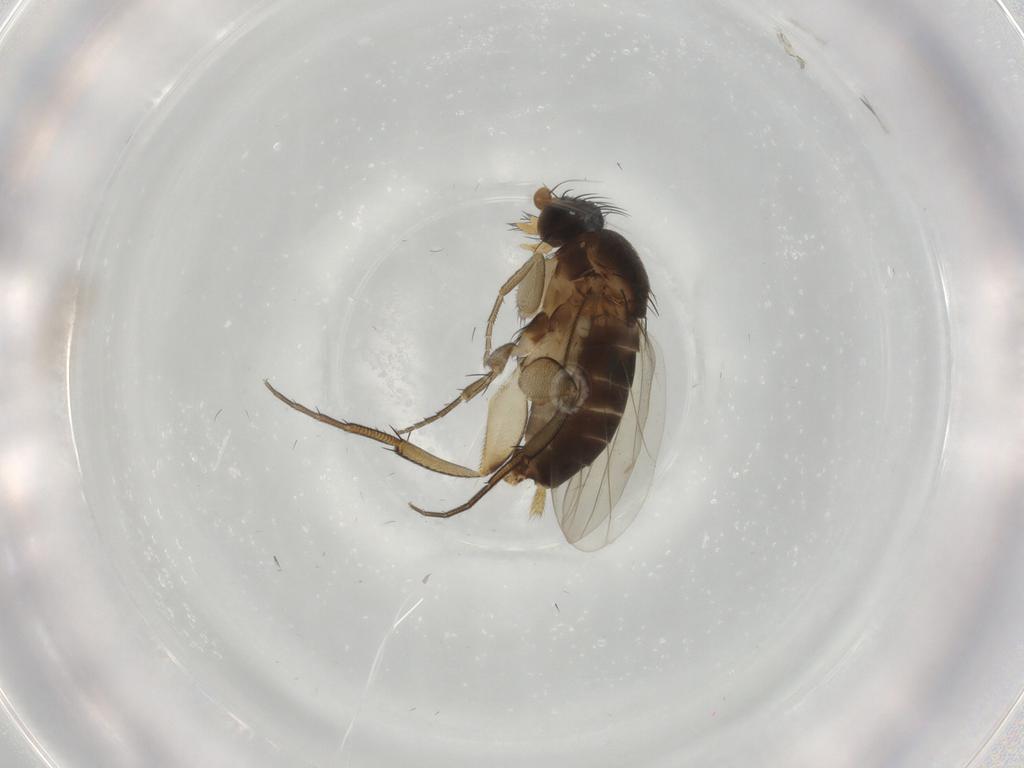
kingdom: Animalia
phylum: Arthropoda
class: Insecta
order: Diptera
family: Phoridae
